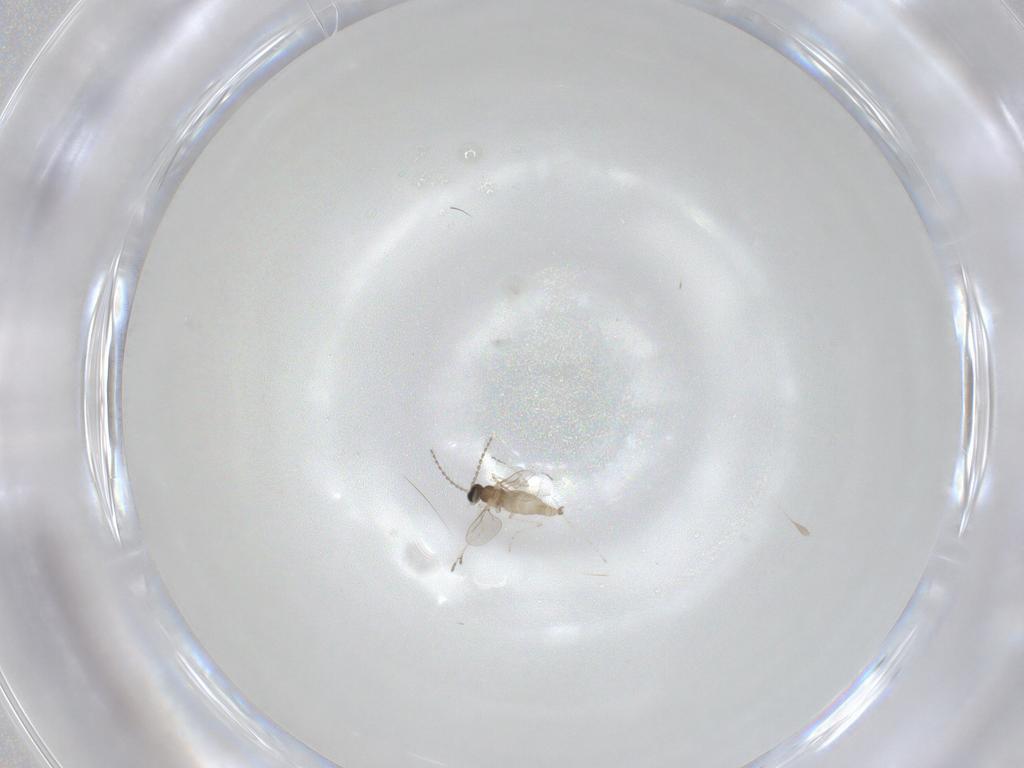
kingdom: Animalia
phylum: Arthropoda
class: Insecta
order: Diptera
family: Cecidomyiidae
